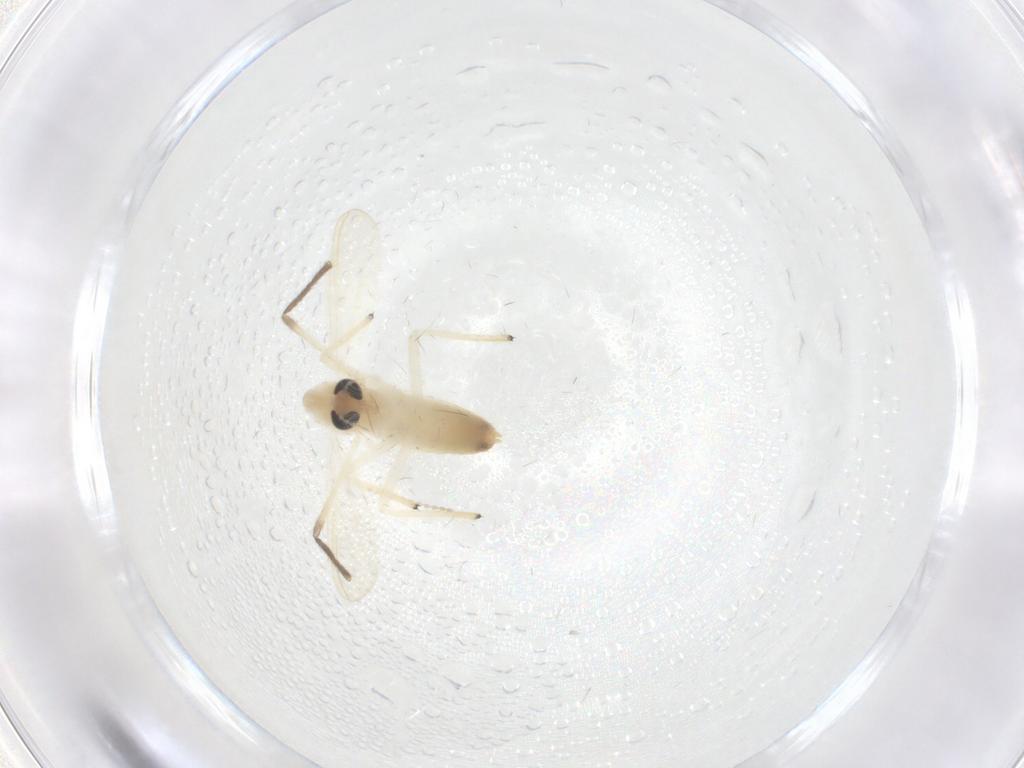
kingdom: Animalia
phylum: Arthropoda
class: Insecta
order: Diptera
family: Chironomidae
